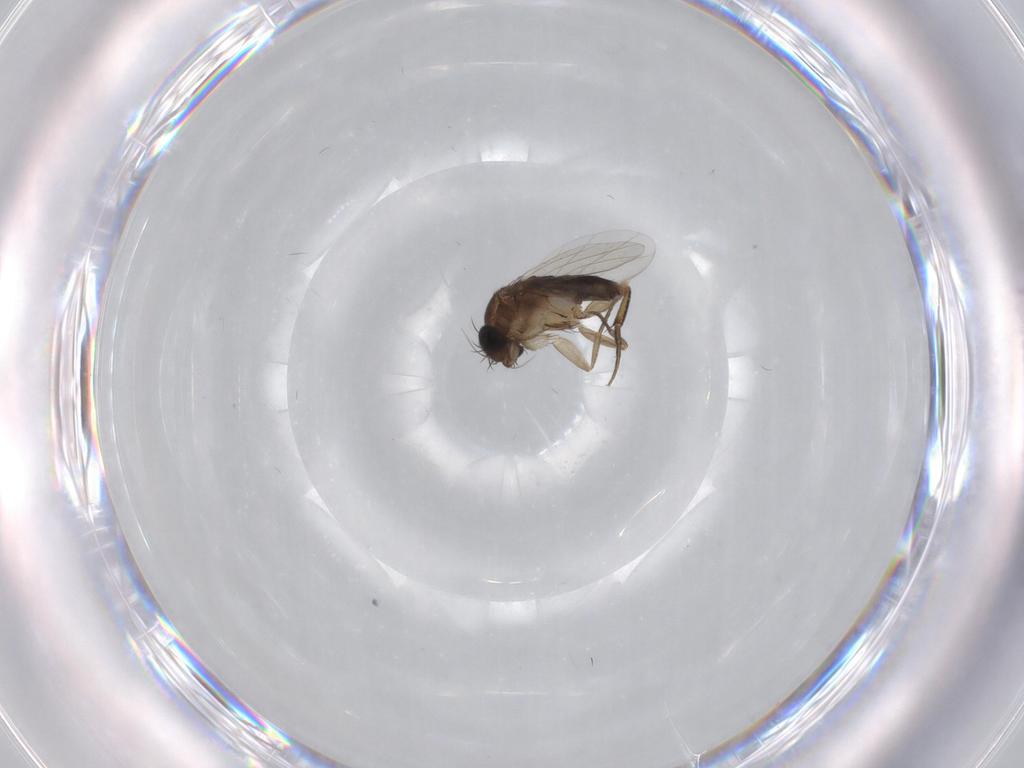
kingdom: Animalia
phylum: Arthropoda
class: Insecta
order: Diptera
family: Phoridae
